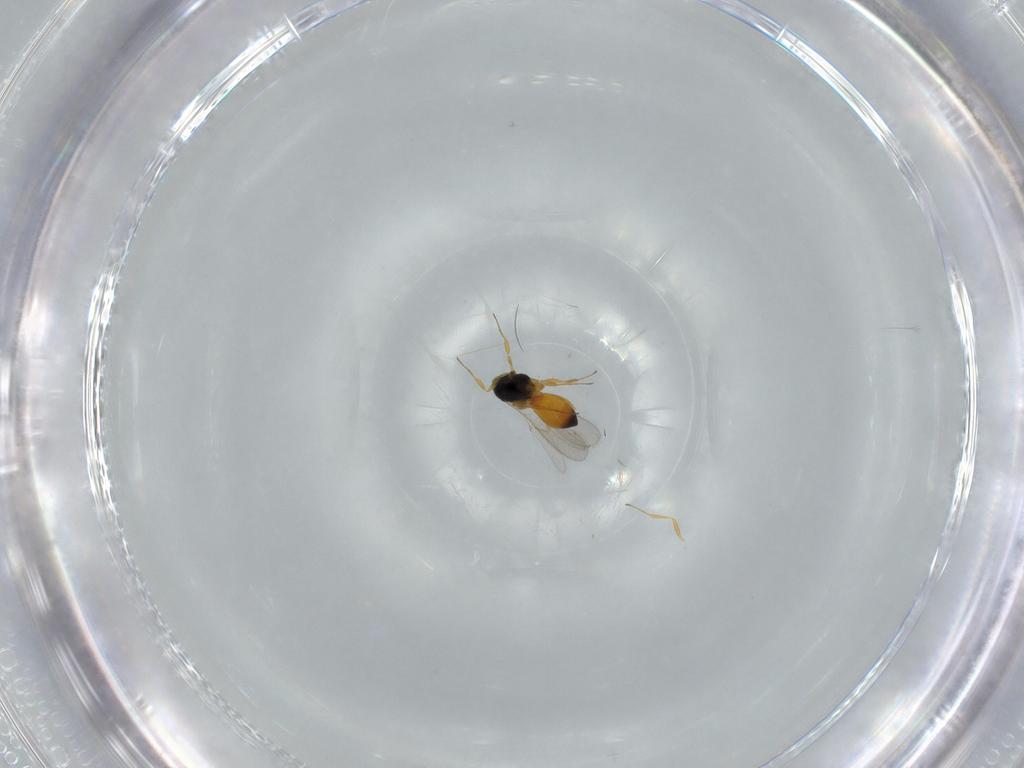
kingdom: Animalia
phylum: Arthropoda
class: Insecta
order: Hymenoptera
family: Scelionidae
